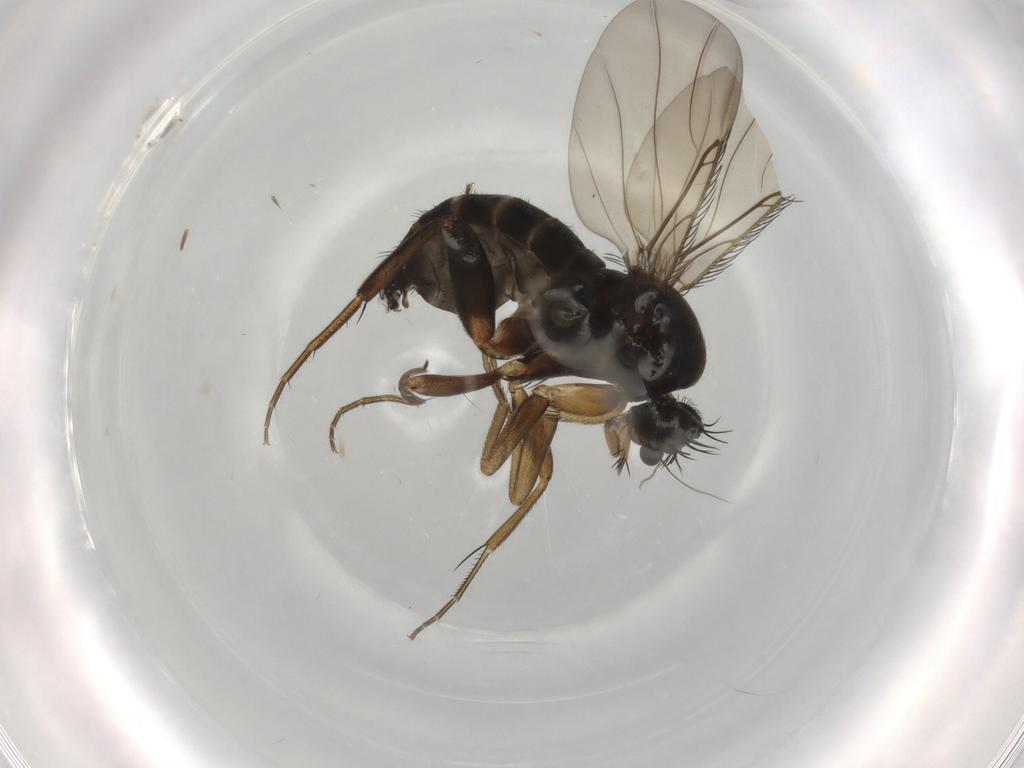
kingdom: Animalia
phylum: Arthropoda
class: Insecta
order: Diptera
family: Phoridae
